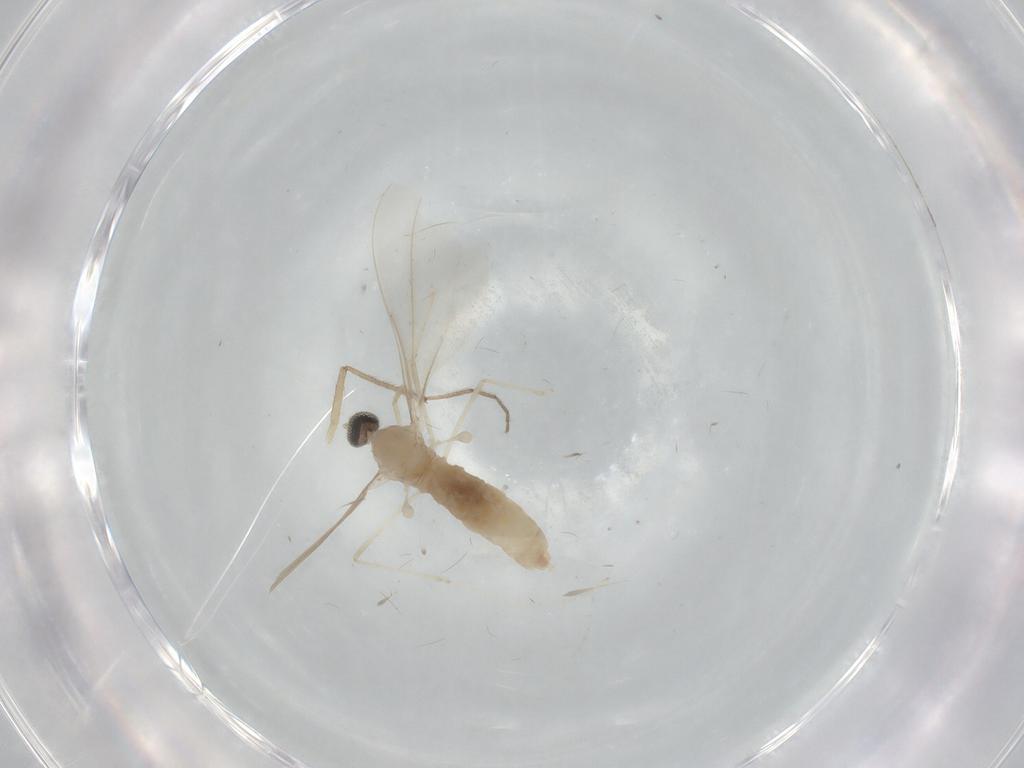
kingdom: Animalia
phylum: Arthropoda
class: Insecta
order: Diptera
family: Cecidomyiidae
